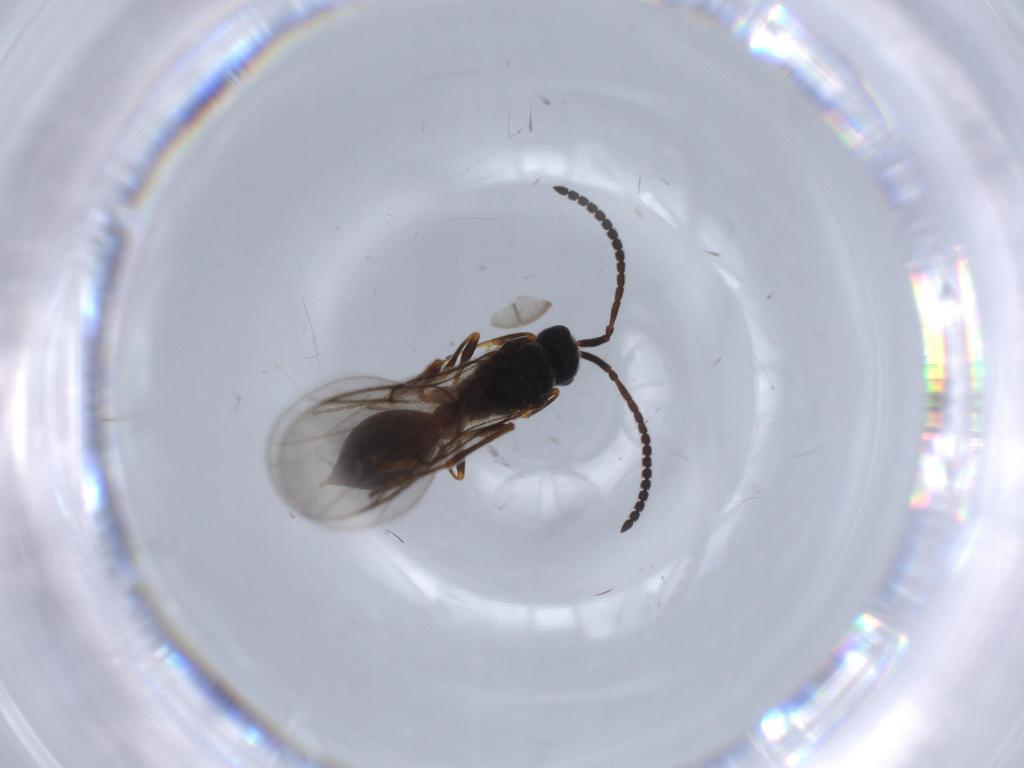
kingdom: Animalia
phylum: Arthropoda
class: Insecta
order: Hymenoptera
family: Ichneumonidae
